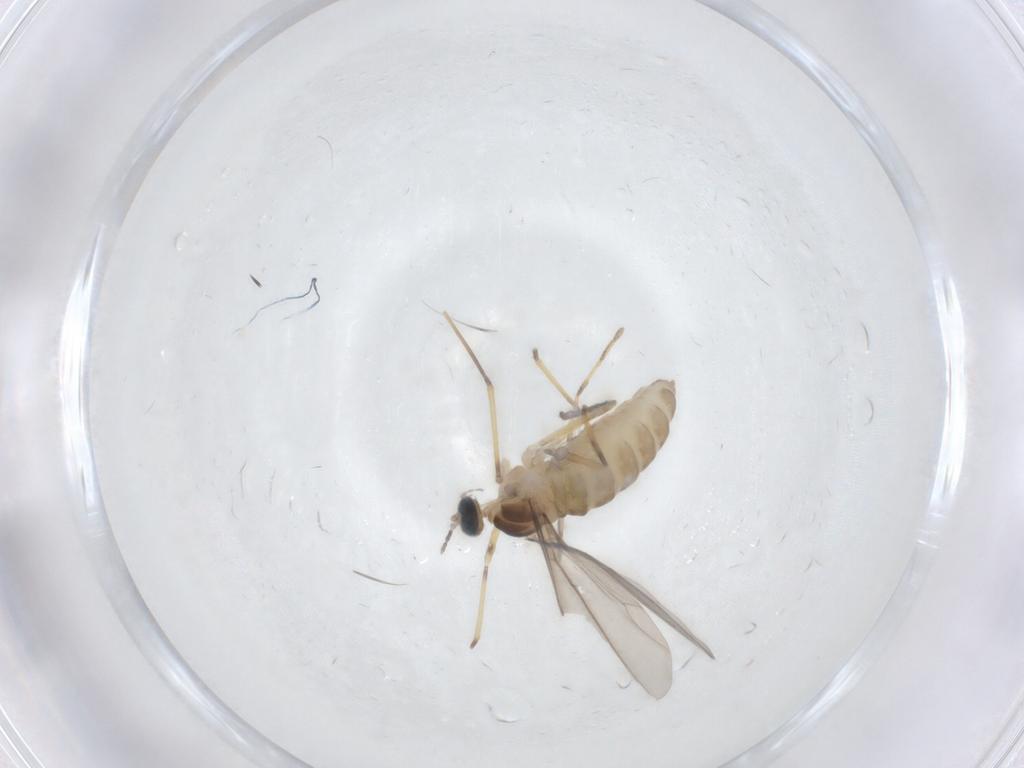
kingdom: Animalia
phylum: Arthropoda
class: Insecta
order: Diptera
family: Cecidomyiidae
